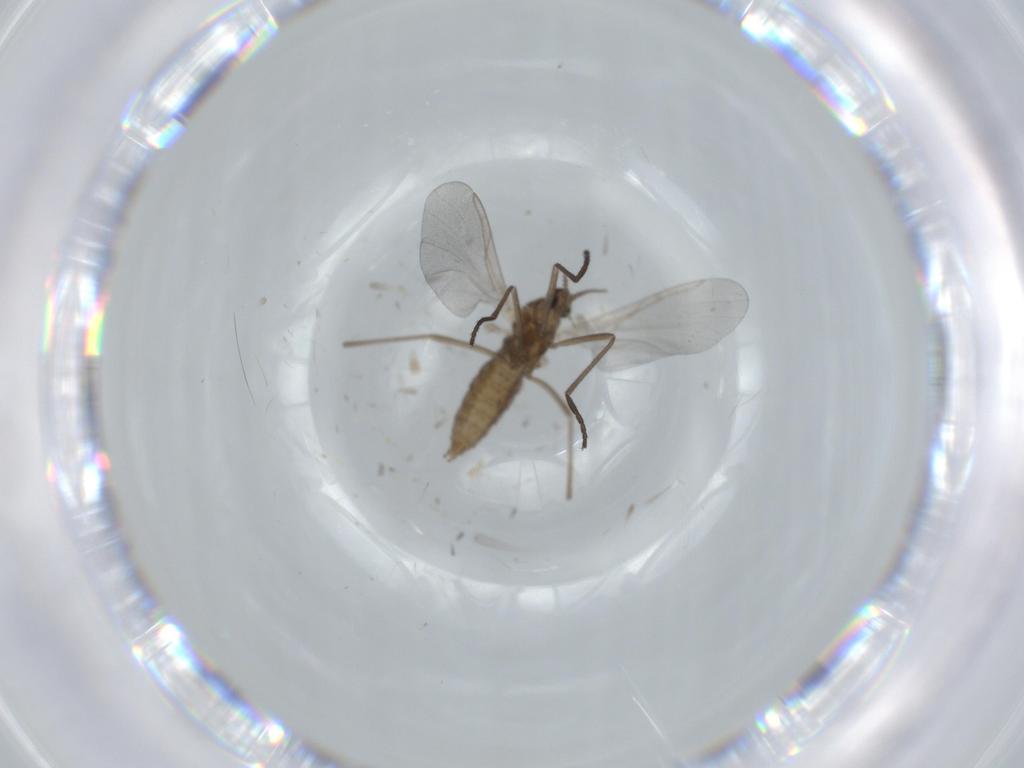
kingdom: Animalia
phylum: Arthropoda
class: Insecta
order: Diptera
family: Cecidomyiidae
